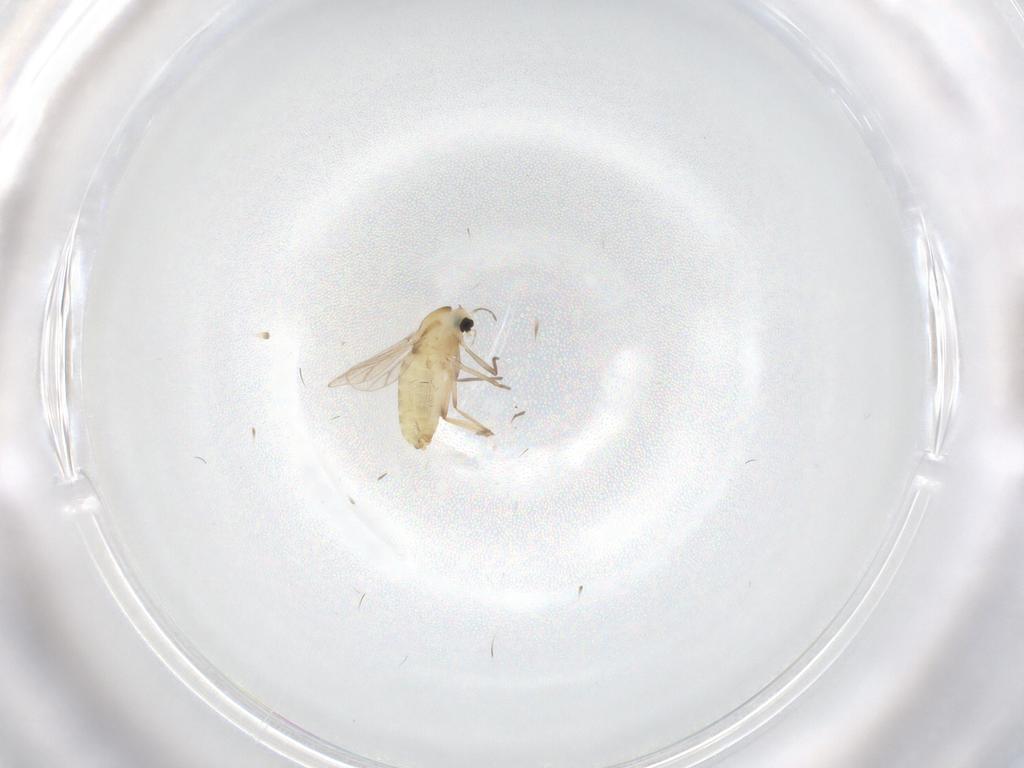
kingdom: Animalia
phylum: Arthropoda
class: Insecta
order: Diptera
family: Chironomidae
